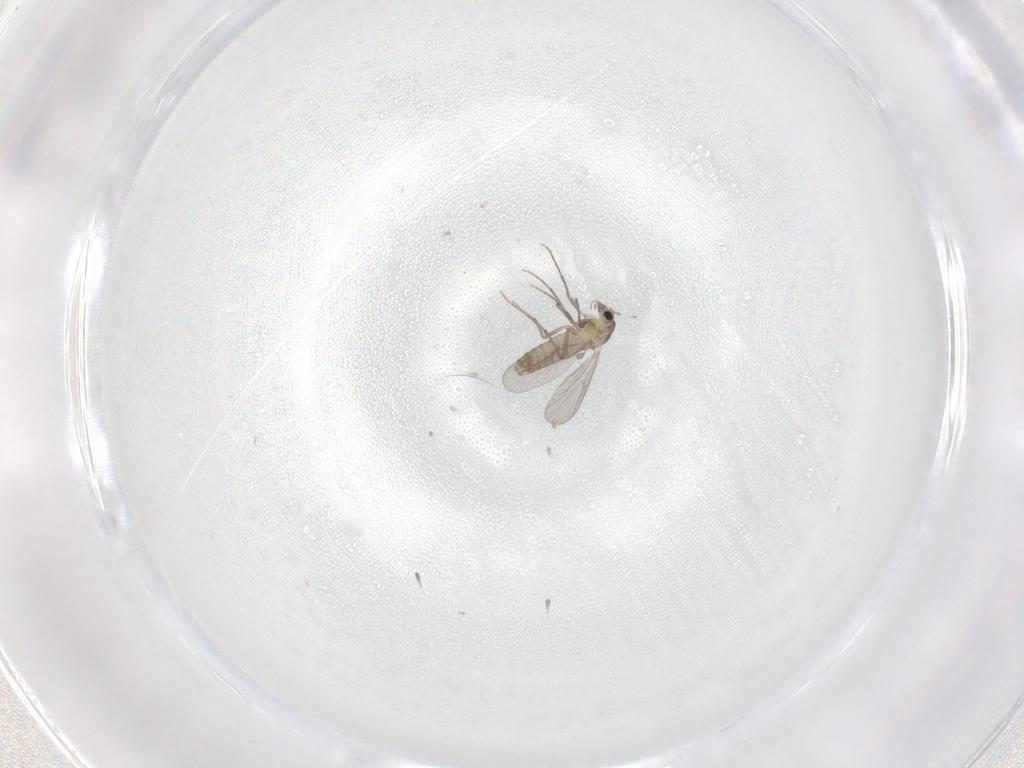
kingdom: Animalia
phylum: Arthropoda
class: Insecta
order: Diptera
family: Chironomidae
